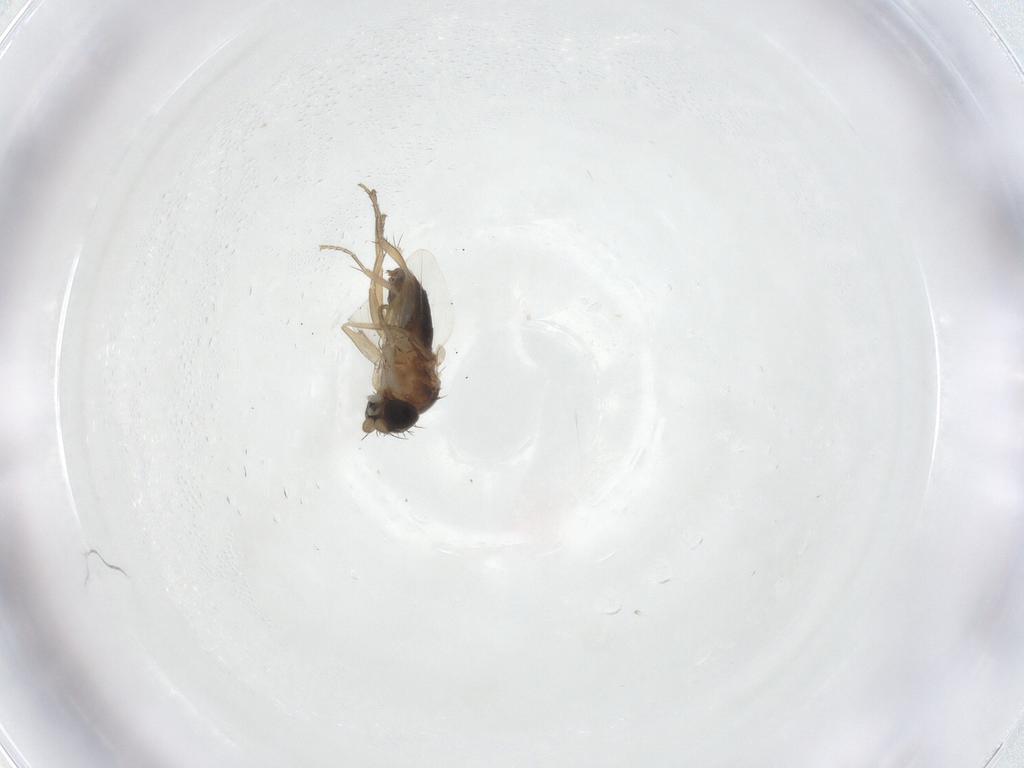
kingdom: Animalia
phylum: Arthropoda
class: Insecta
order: Diptera
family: Phoridae
